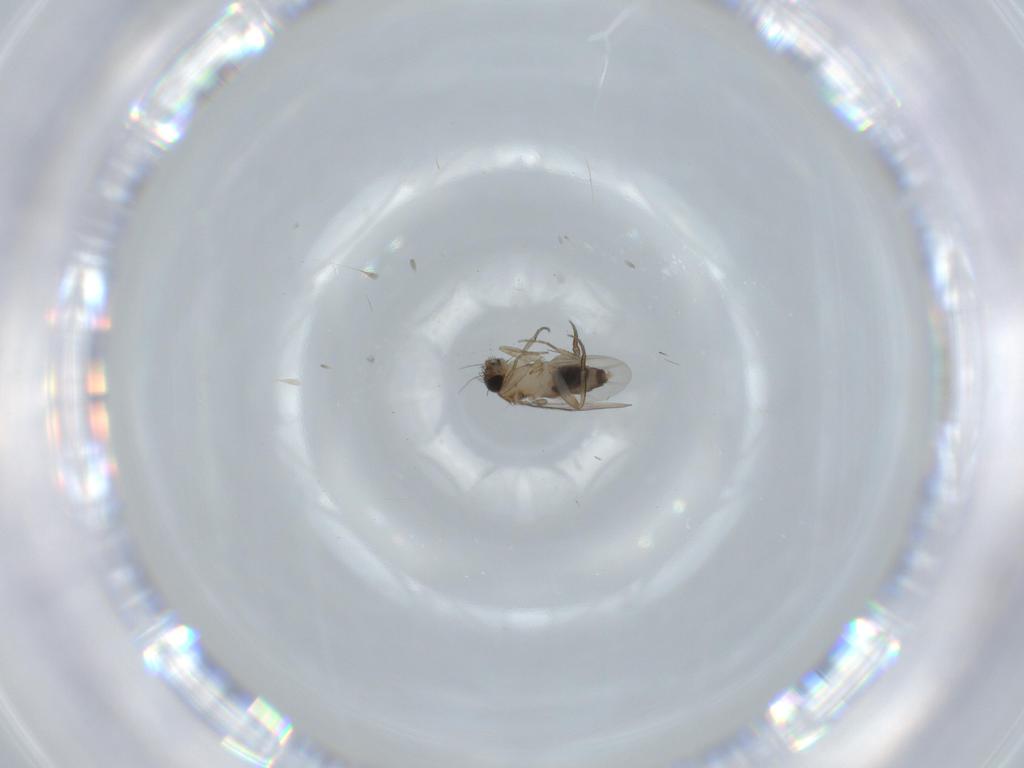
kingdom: Animalia
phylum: Arthropoda
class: Insecta
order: Diptera
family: Phoridae
